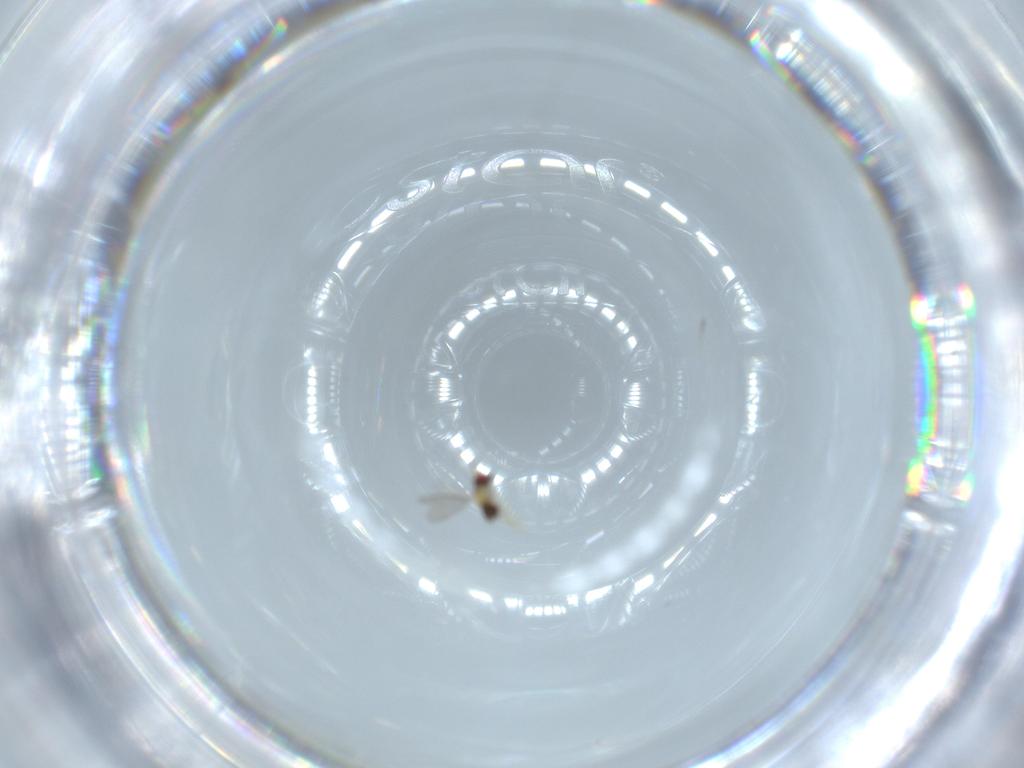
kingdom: Animalia
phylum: Arthropoda
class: Insecta
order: Hymenoptera
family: Aphelinidae
